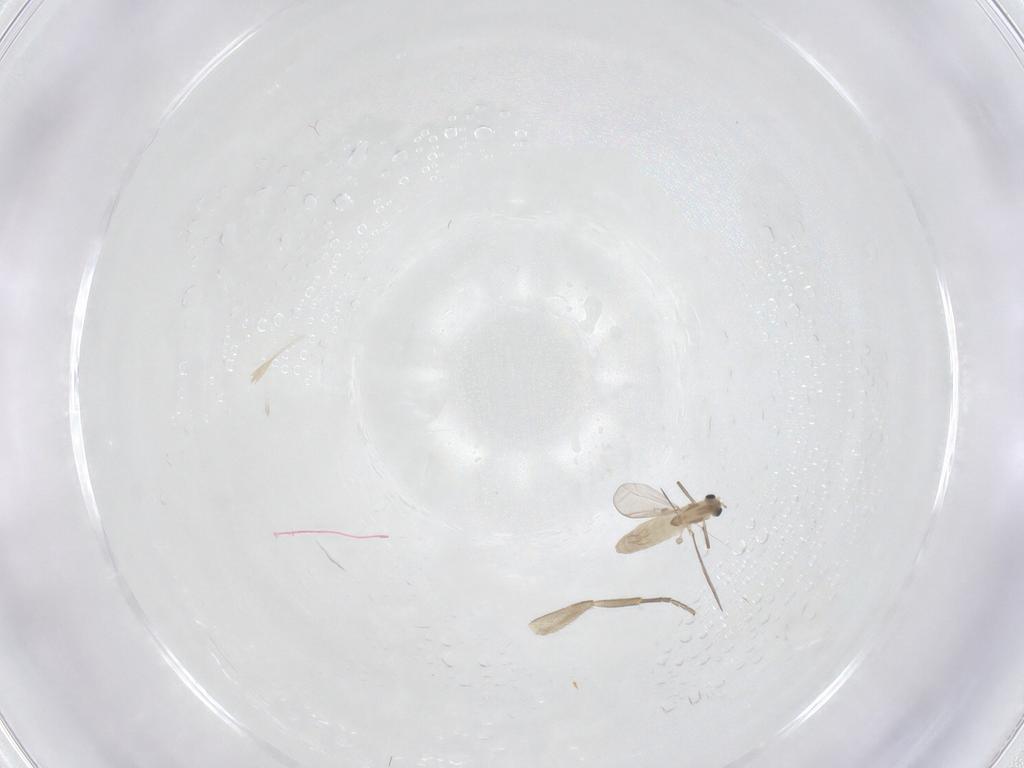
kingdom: Animalia
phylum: Arthropoda
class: Insecta
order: Diptera
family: Phoridae
